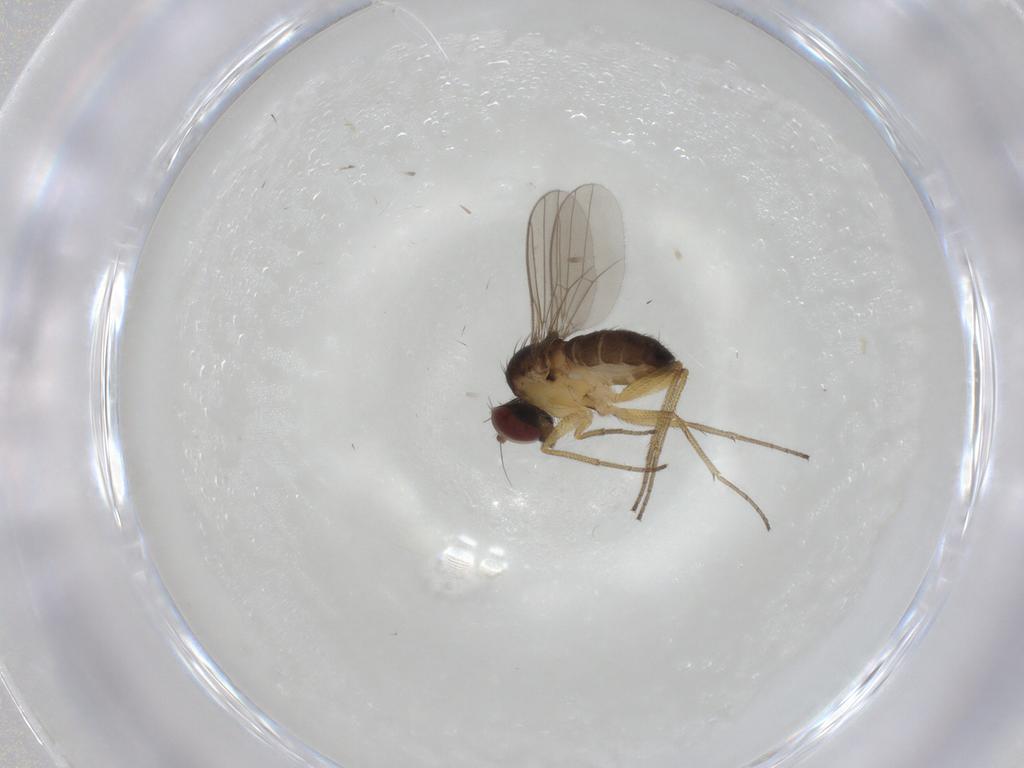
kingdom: Animalia
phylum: Arthropoda
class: Insecta
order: Diptera
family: Dolichopodidae
